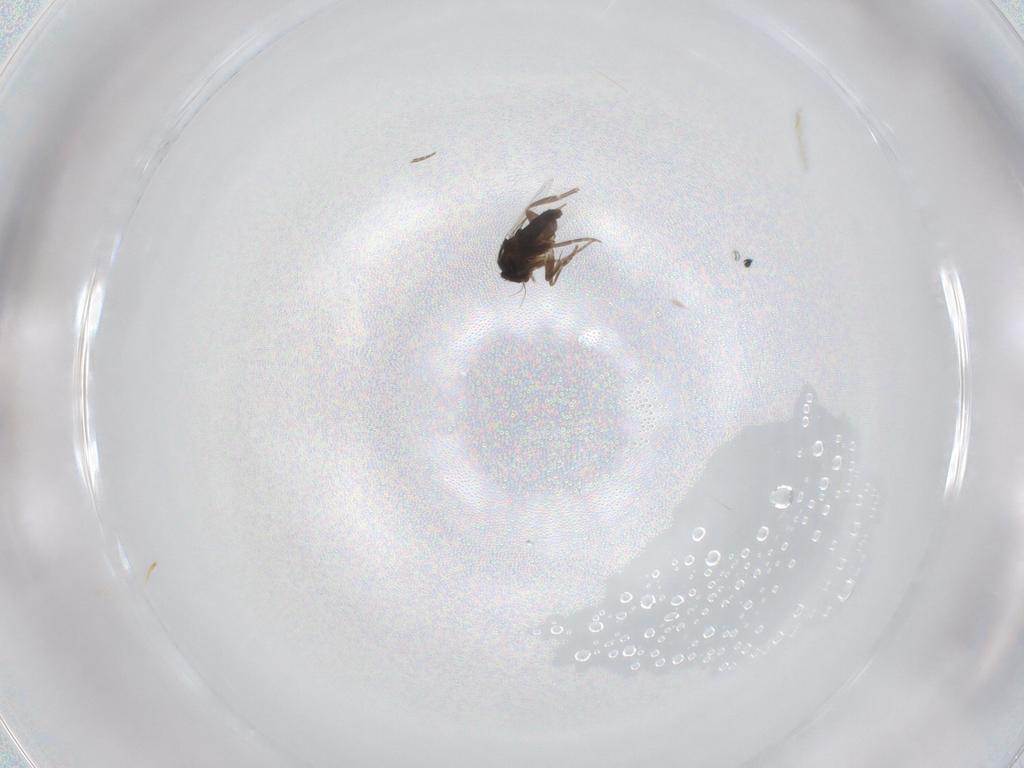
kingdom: Animalia
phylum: Arthropoda
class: Insecta
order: Diptera
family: Phoridae
